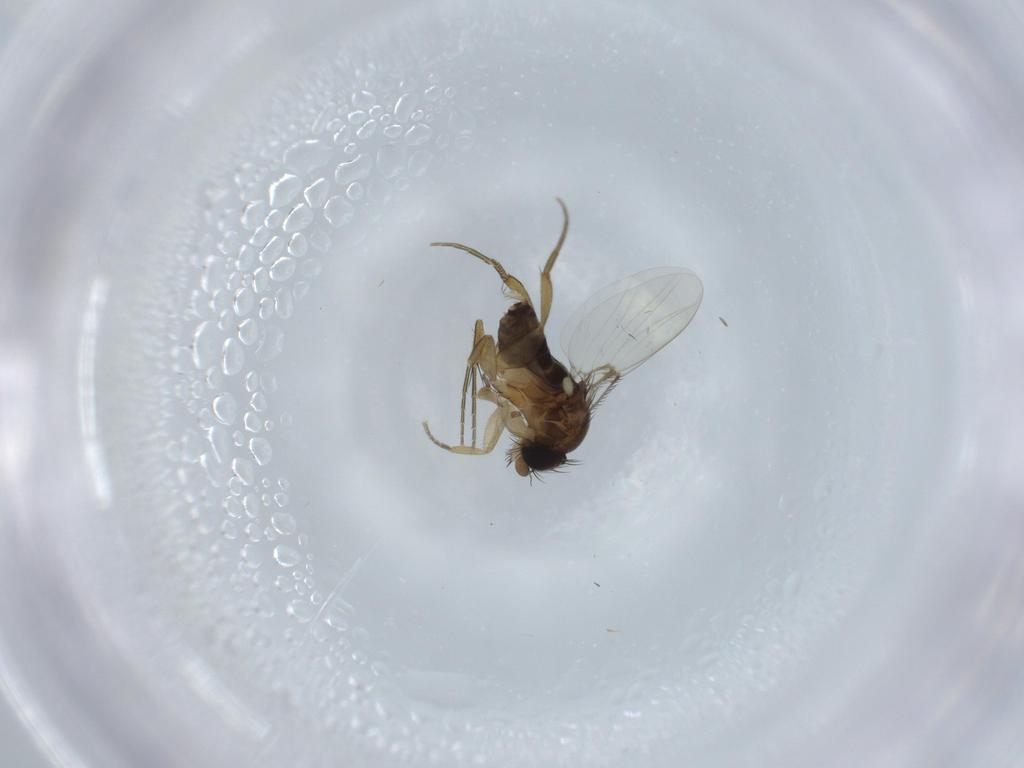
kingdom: Animalia
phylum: Arthropoda
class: Insecta
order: Diptera
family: Phoridae
